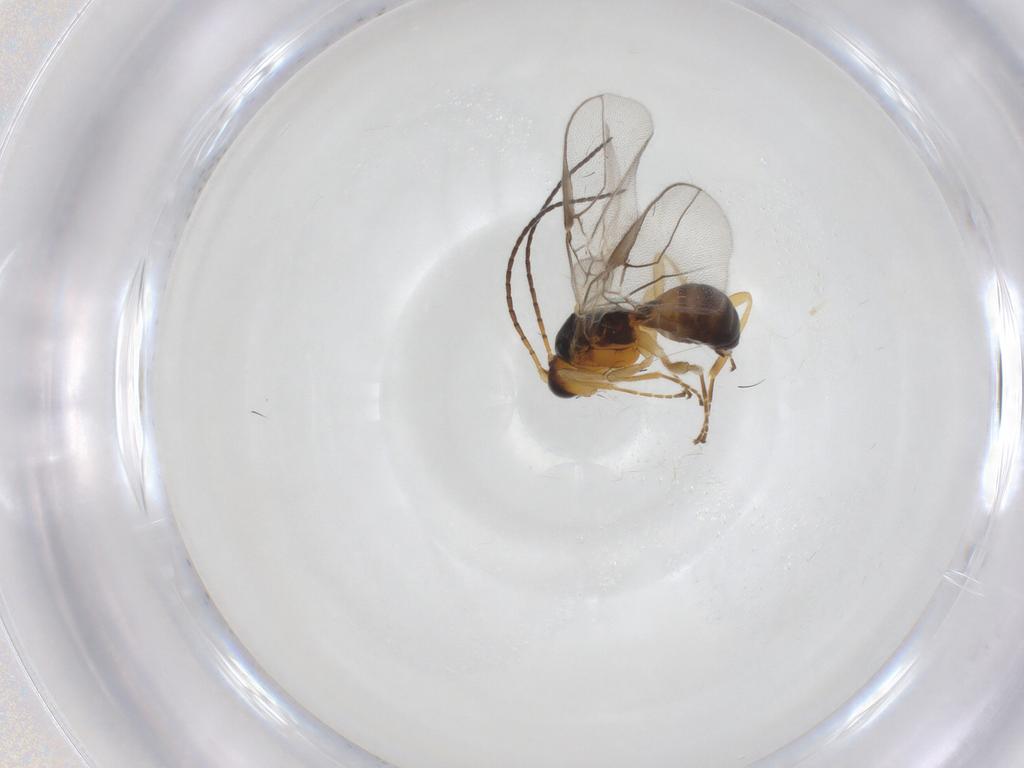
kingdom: Animalia
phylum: Arthropoda
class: Insecta
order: Hymenoptera
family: Braconidae
